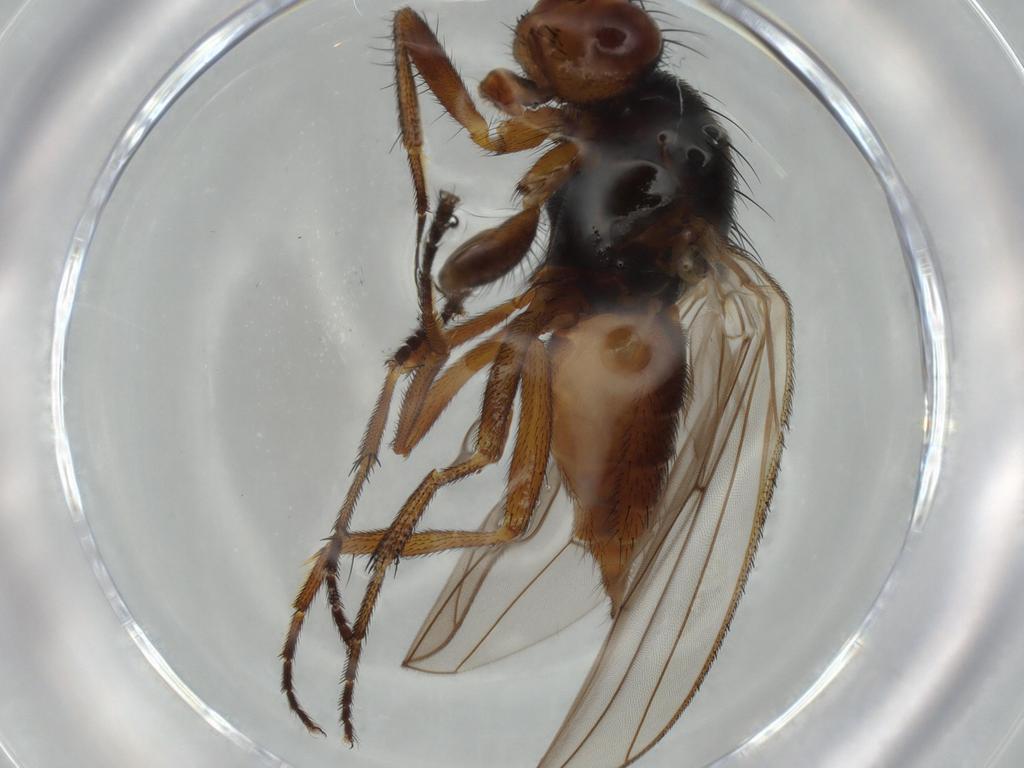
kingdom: Animalia
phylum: Arthropoda
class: Insecta
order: Diptera
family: Heleomyzidae
